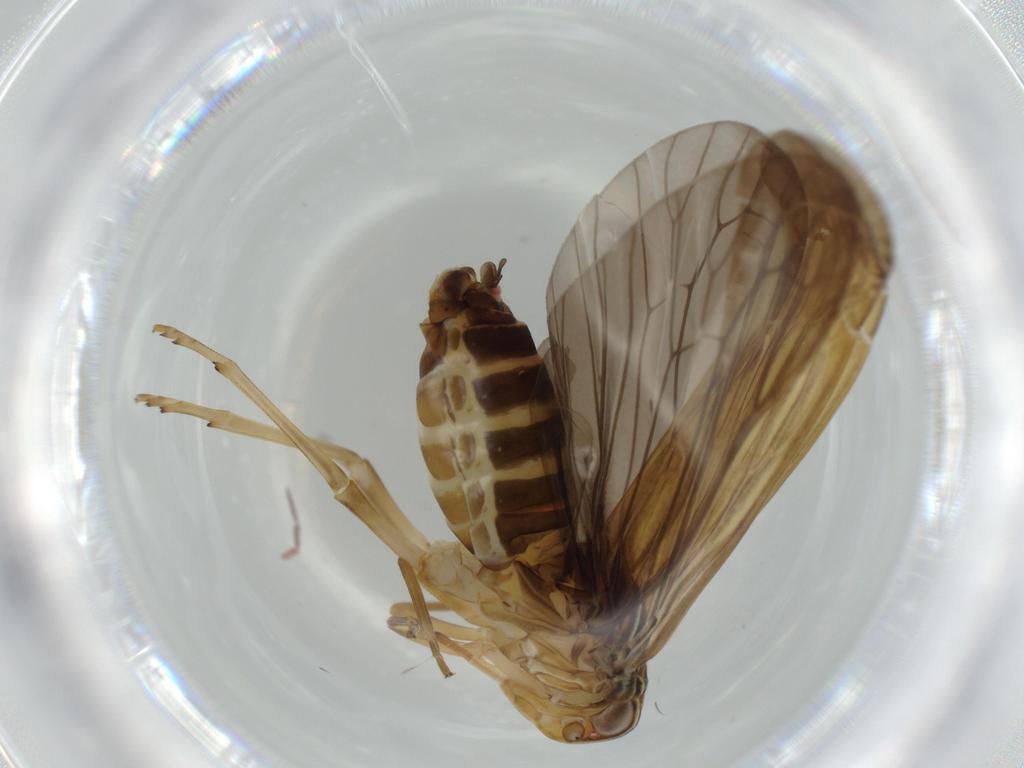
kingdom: Animalia
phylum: Arthropoda
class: Insecta
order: Hemiptera
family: Achilidae
